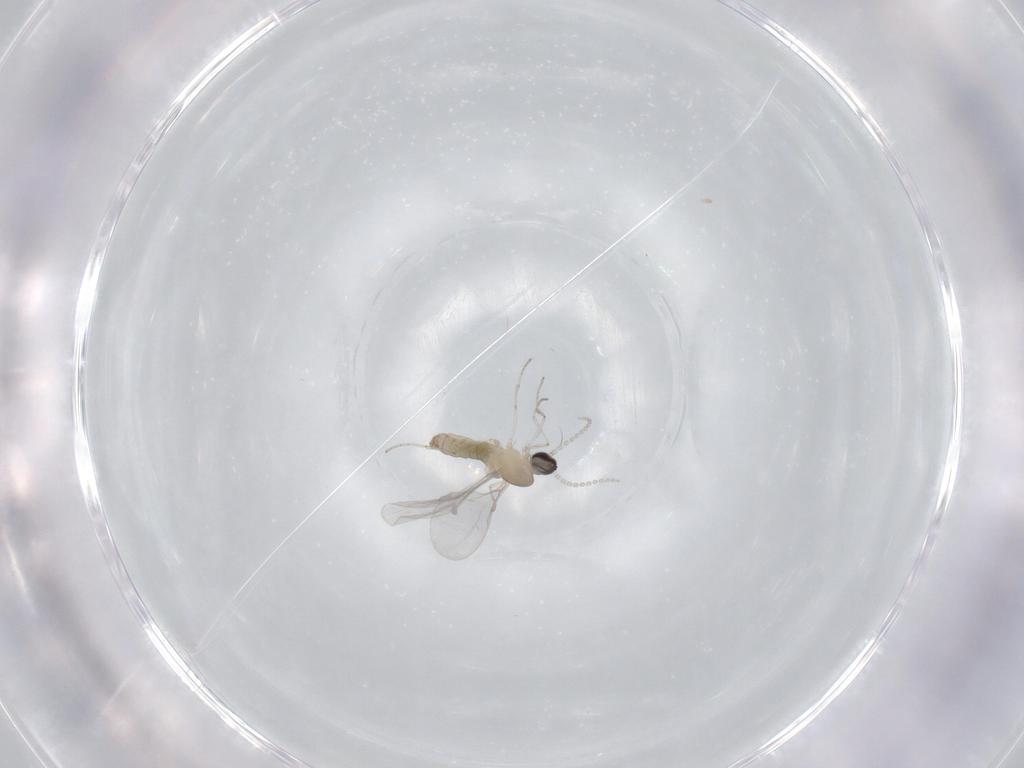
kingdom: Animalia
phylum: Arthropoda
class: Insecta
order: Diptera
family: Cecidomyiidae
